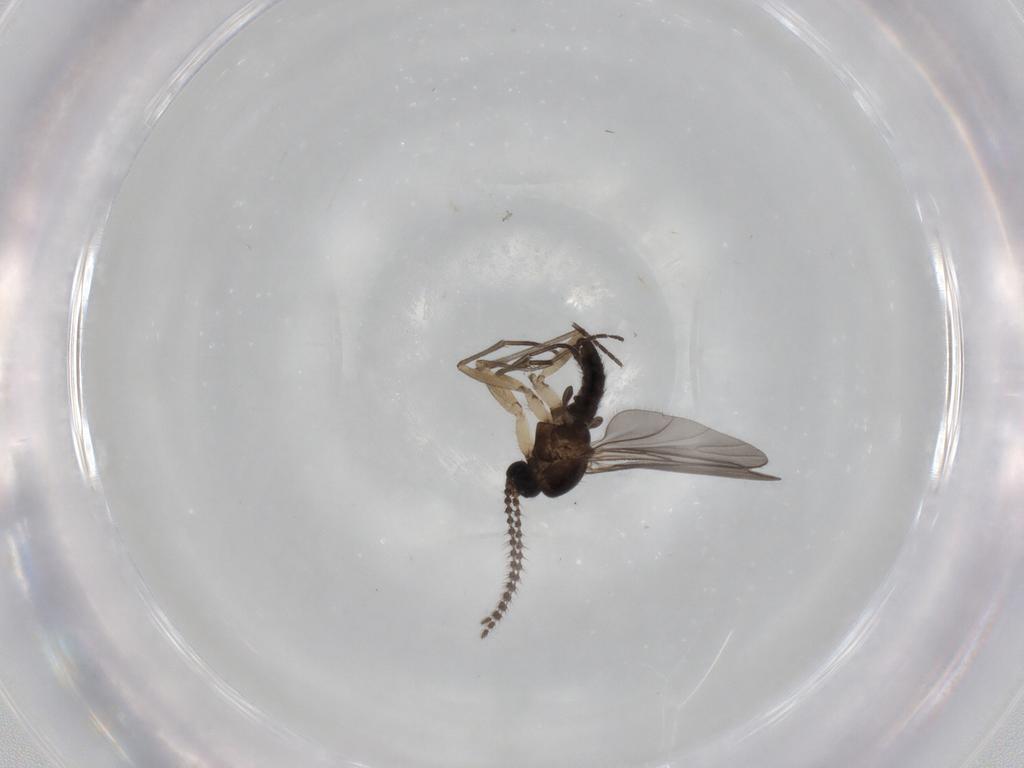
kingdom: Animalia
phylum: Arthropoda
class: Insecta
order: Diptera
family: Sciaridae
